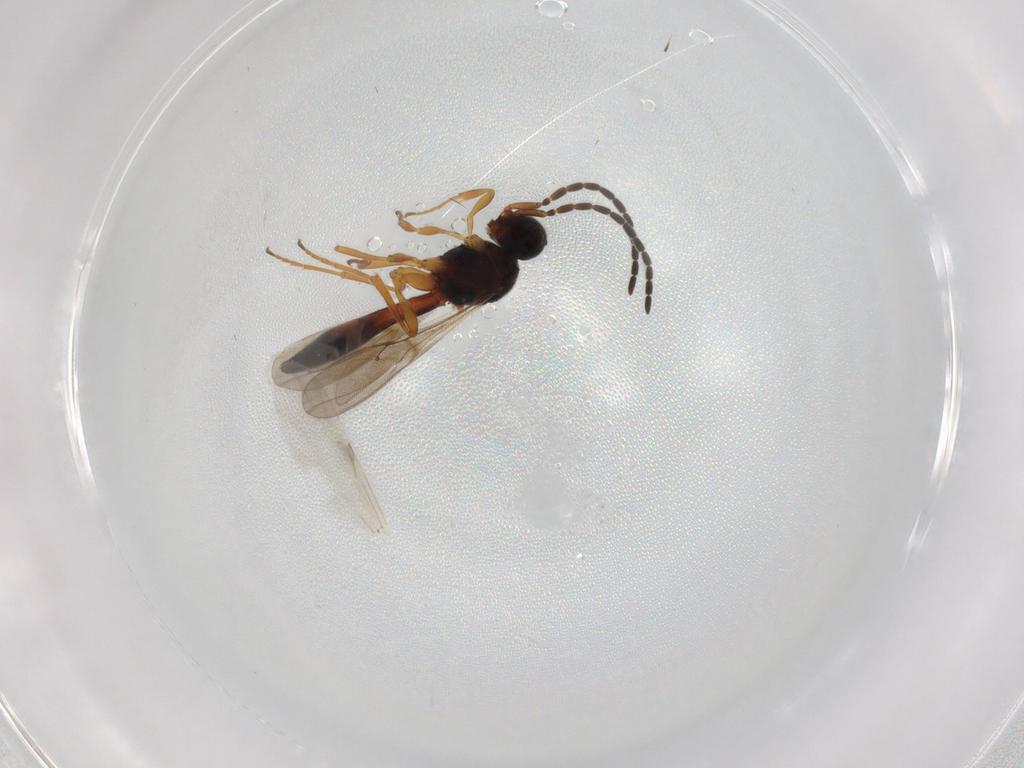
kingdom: Animalia
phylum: Arthropoda
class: Insecta
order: Hymenoptera
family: Scelionidae
